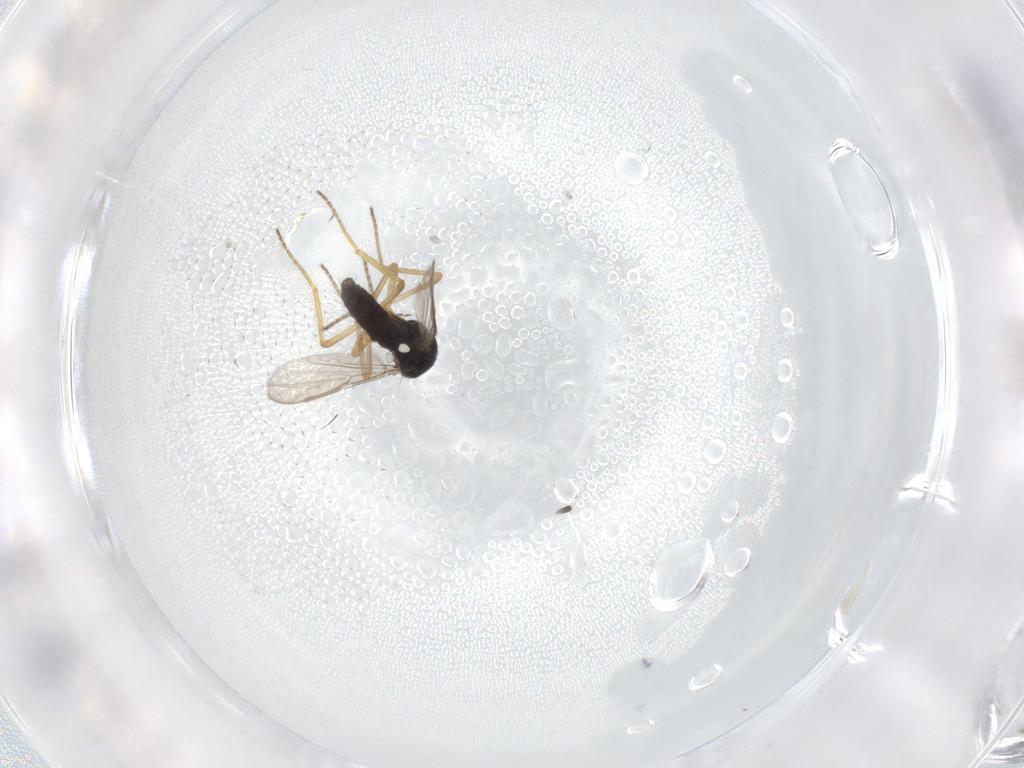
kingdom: Animalia
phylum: Arthropoda
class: Insecta
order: Diptera
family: Ceratopogonidae
